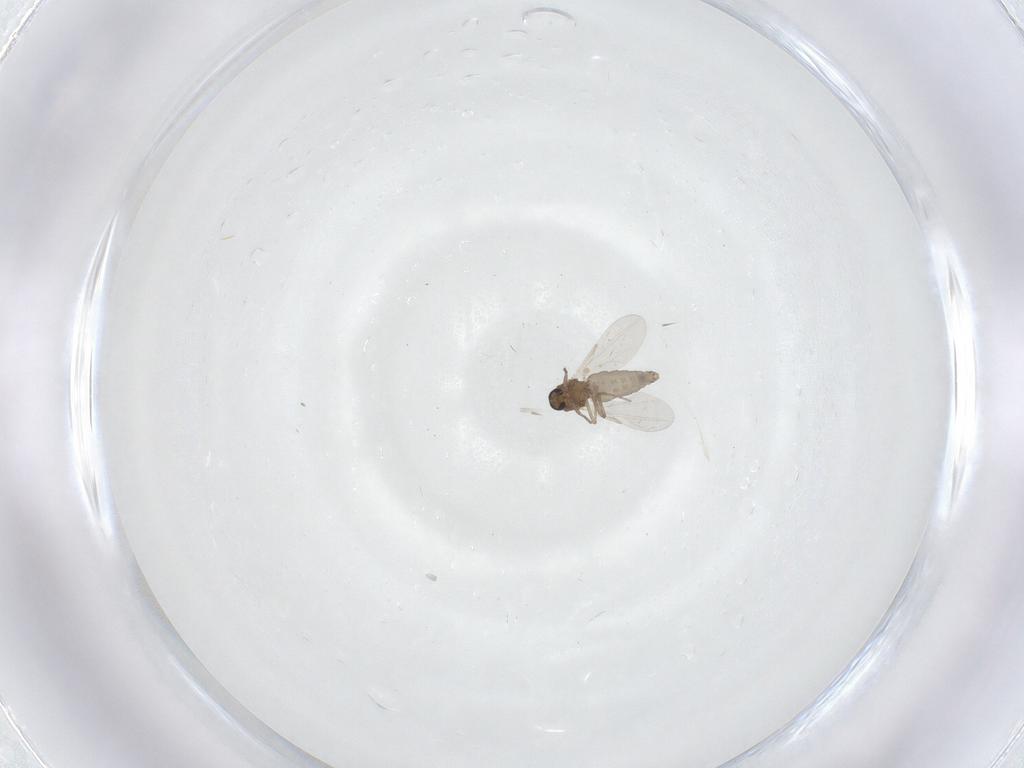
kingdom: Animalia
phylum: Arthropoda
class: Insecta
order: Diptera
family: Ceratopogonidae
